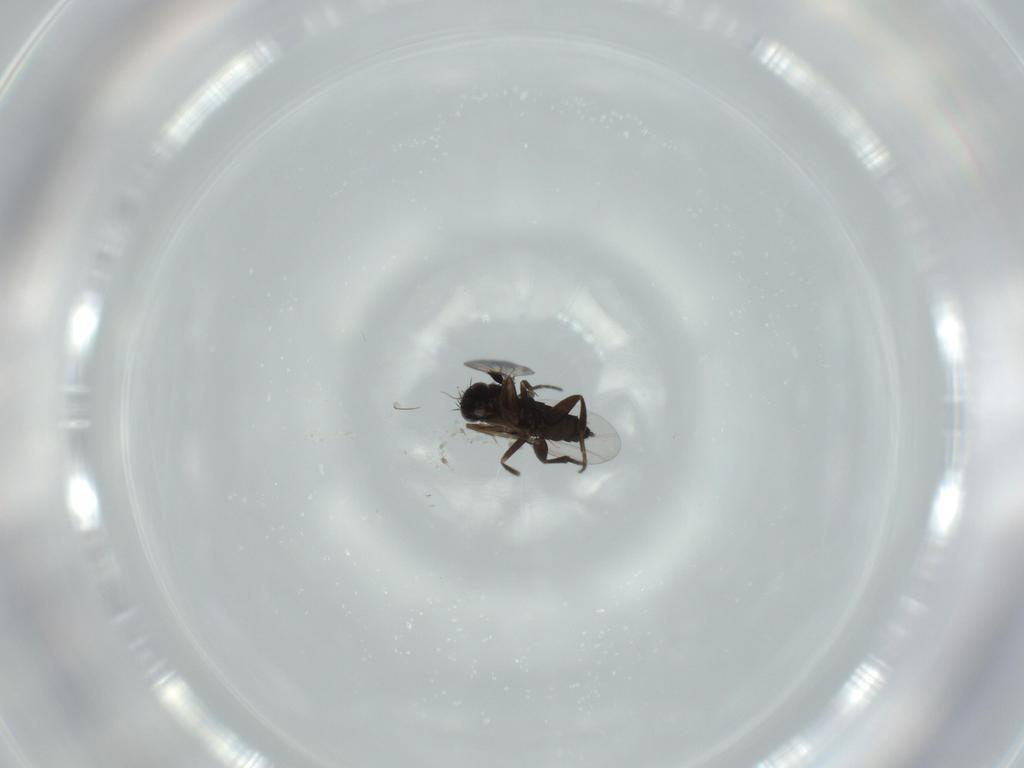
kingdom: Animalia
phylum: Arthropoda
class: Insecta
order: Diptera
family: Phoridae
